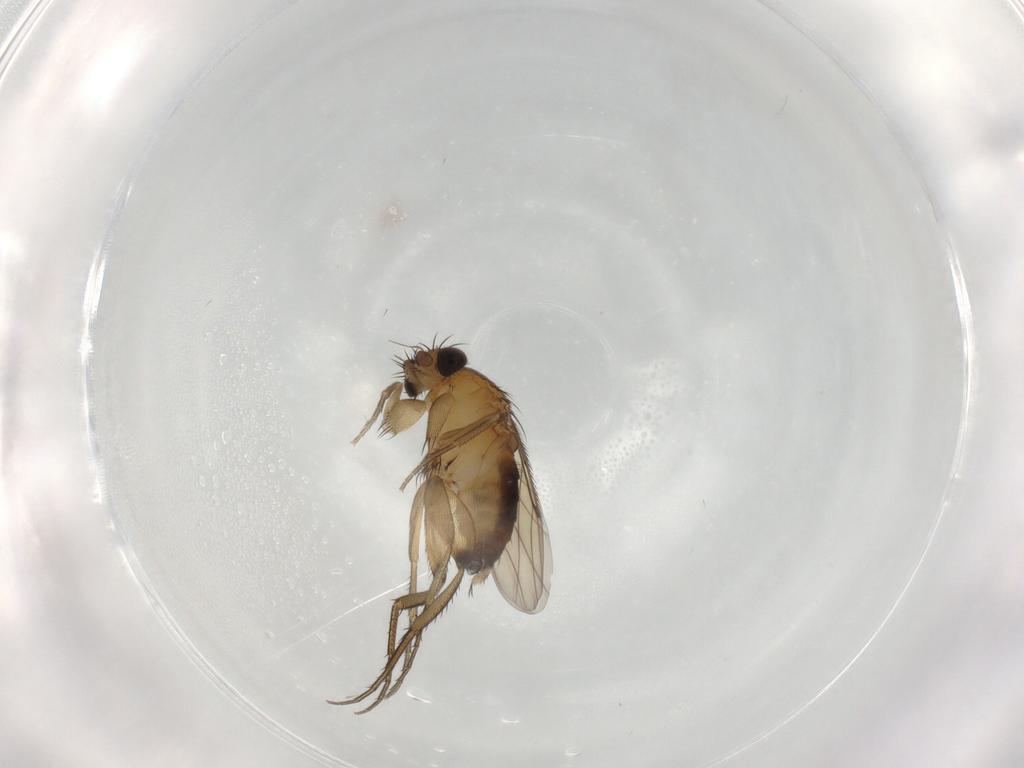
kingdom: Animalia
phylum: Arthropoda
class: Insecta
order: Diptera
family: Phoridae
